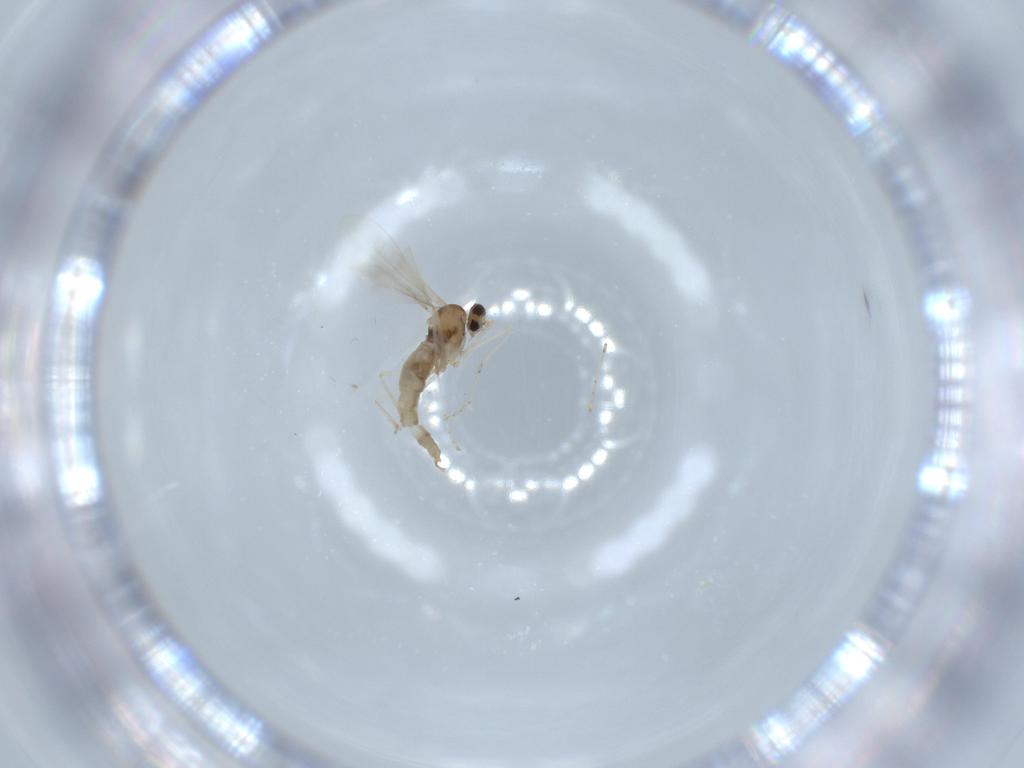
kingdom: Animalia
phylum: Arthropoda
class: Insecta
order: Diptera
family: Cecidomyiidae
